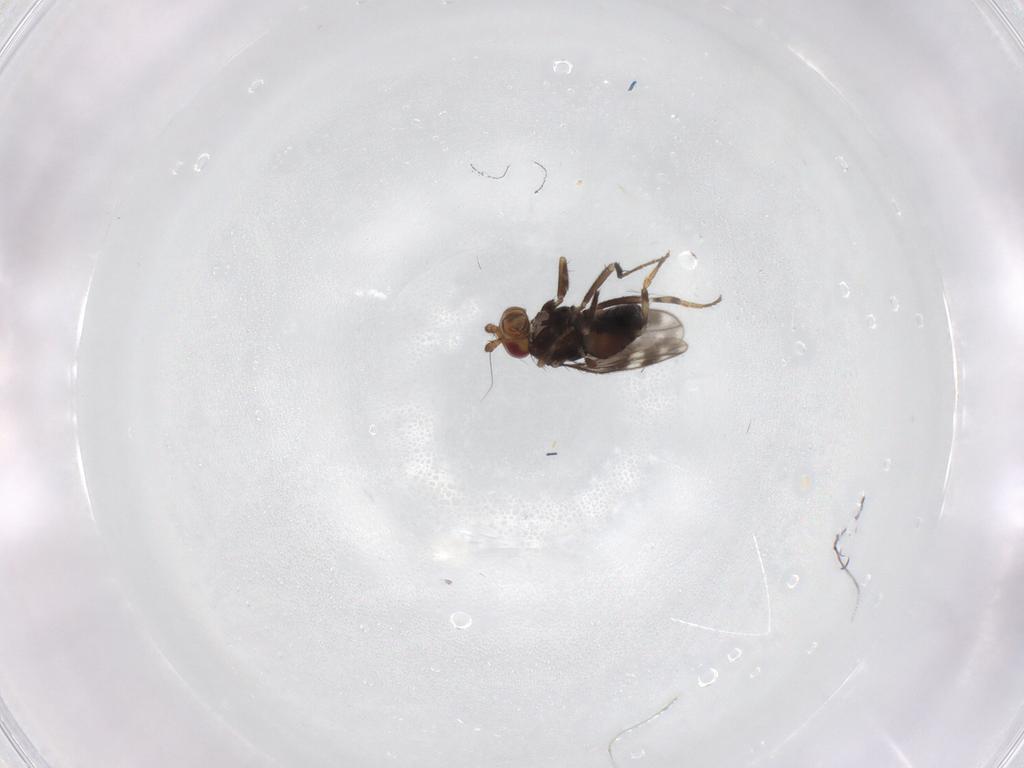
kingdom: Animalia
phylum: Arthropoda
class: Insecta
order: Diptera
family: Sphaeroceridae
